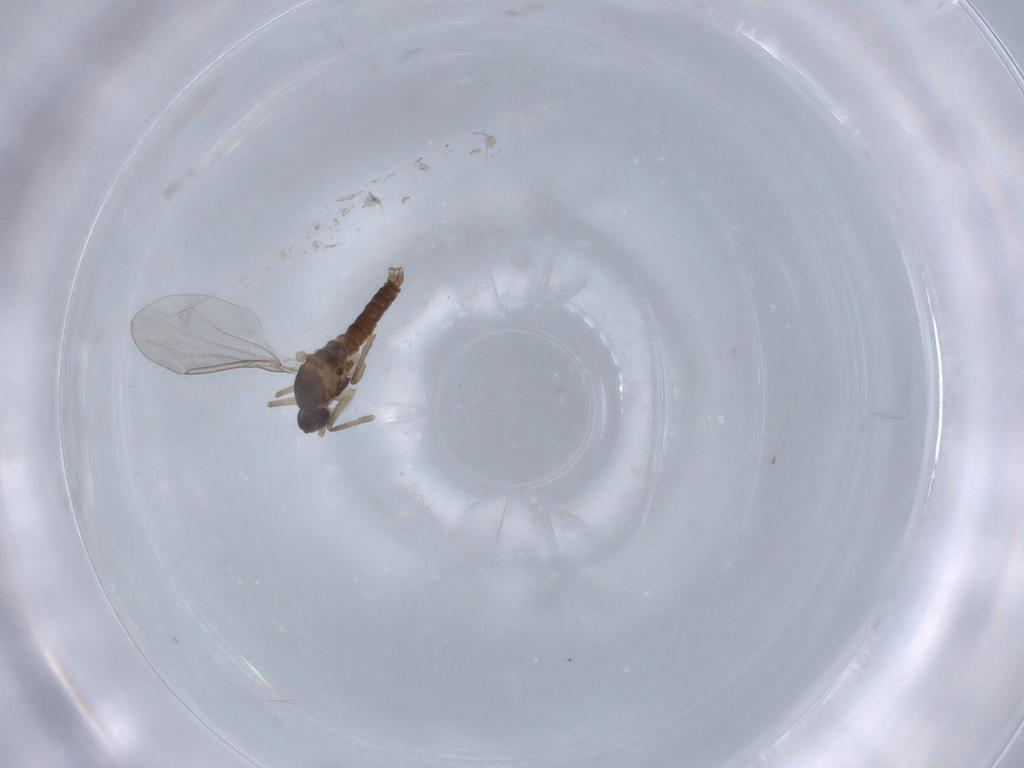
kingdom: Animalia
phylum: Arthropoda
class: Insecta
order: Diptera
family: Cecidomyiidae
